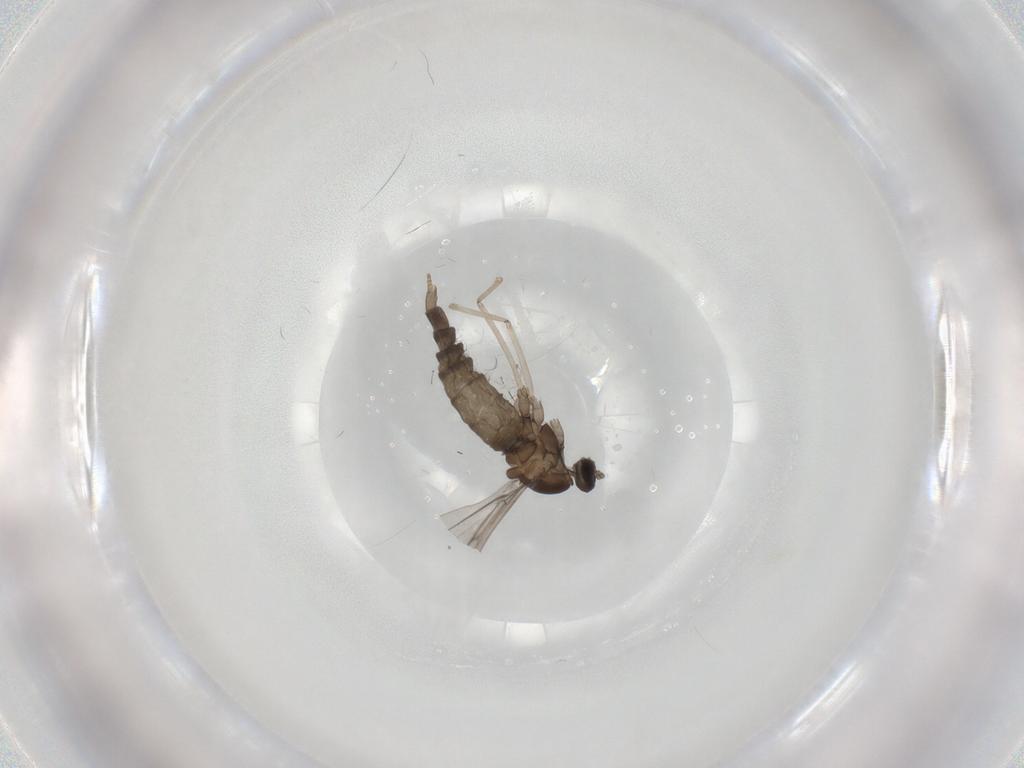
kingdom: Animalia
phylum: Arthropoda
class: Insecta
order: Diptera
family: Cecidomyiidae
